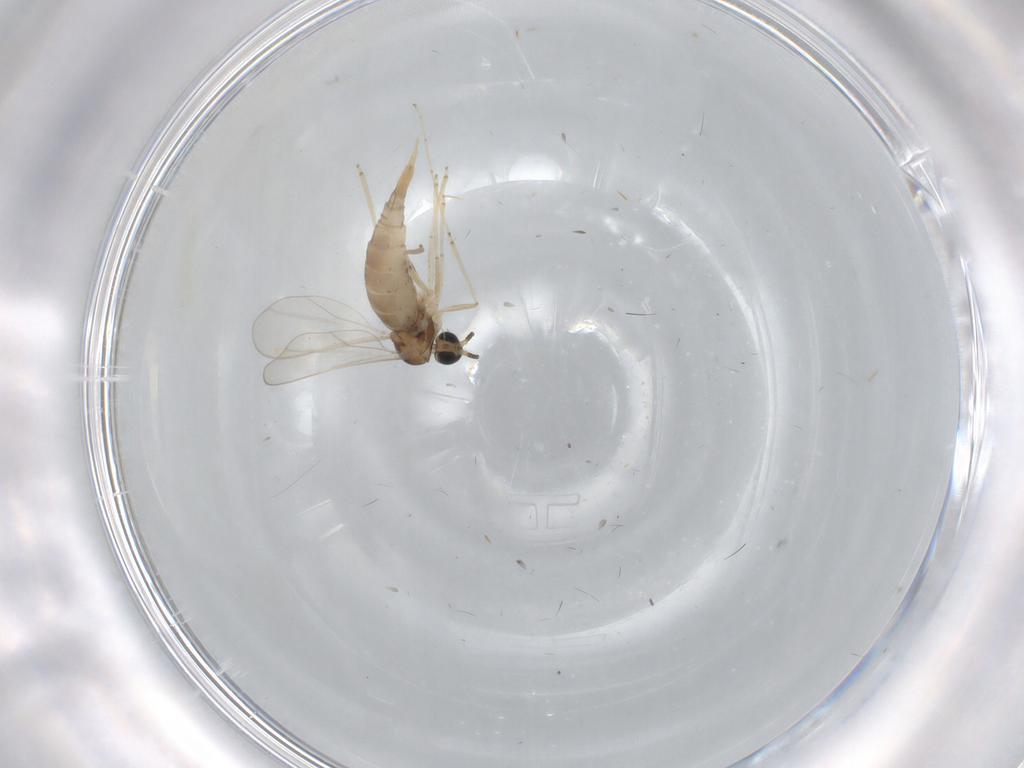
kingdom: Animalia
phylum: Arthropoda
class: Insecta
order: Diptera
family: Cecidomyiidae
